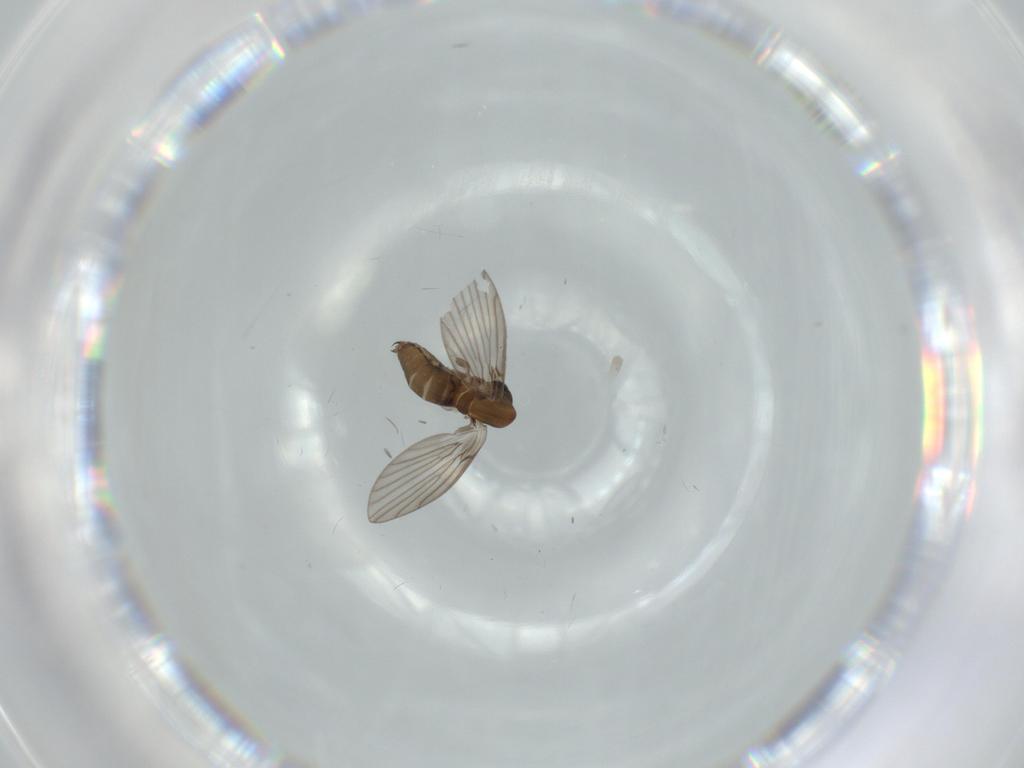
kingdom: Animalia
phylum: Arthropoda
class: Insecta
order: Diptera
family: Psychodidae
